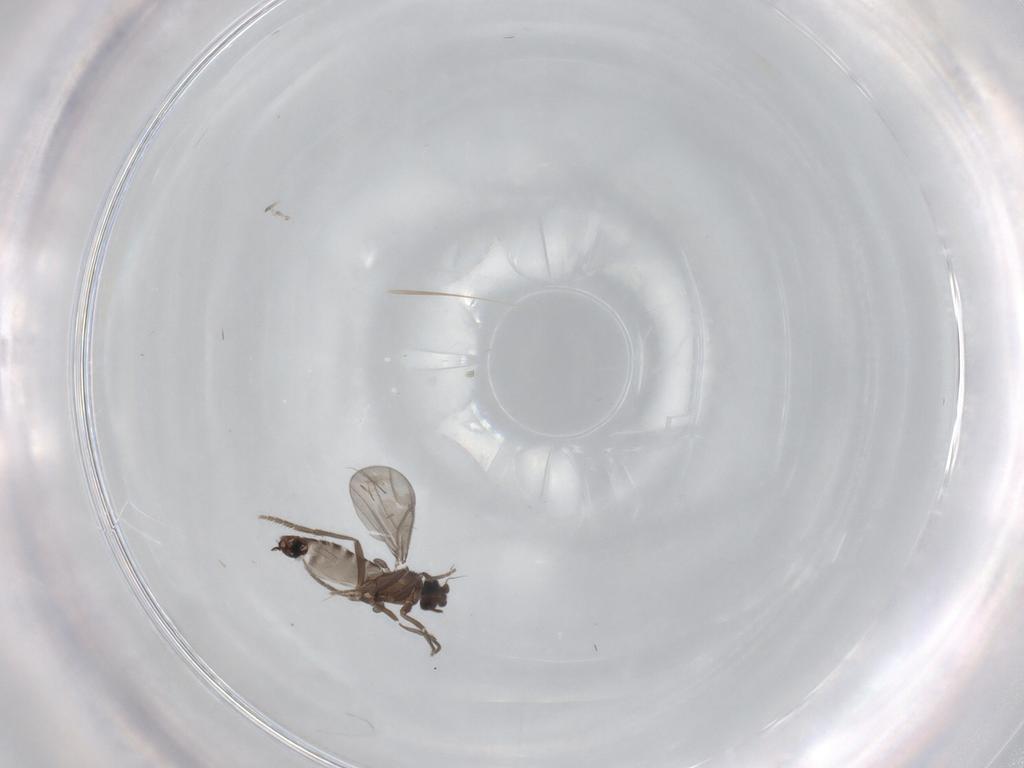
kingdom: Animalia
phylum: Arthropoda
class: Insecta
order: Diptera
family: Phoridae
